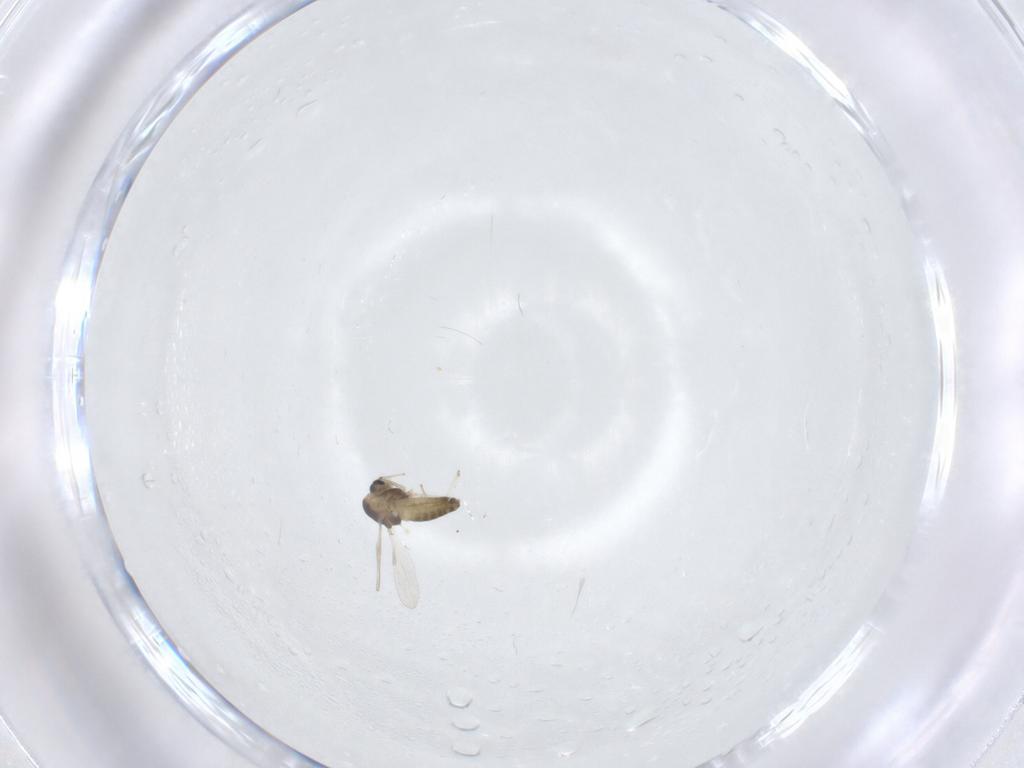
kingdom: Animalia
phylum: Arthropoda
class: Insecta
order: Diptera
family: Chironomidae
